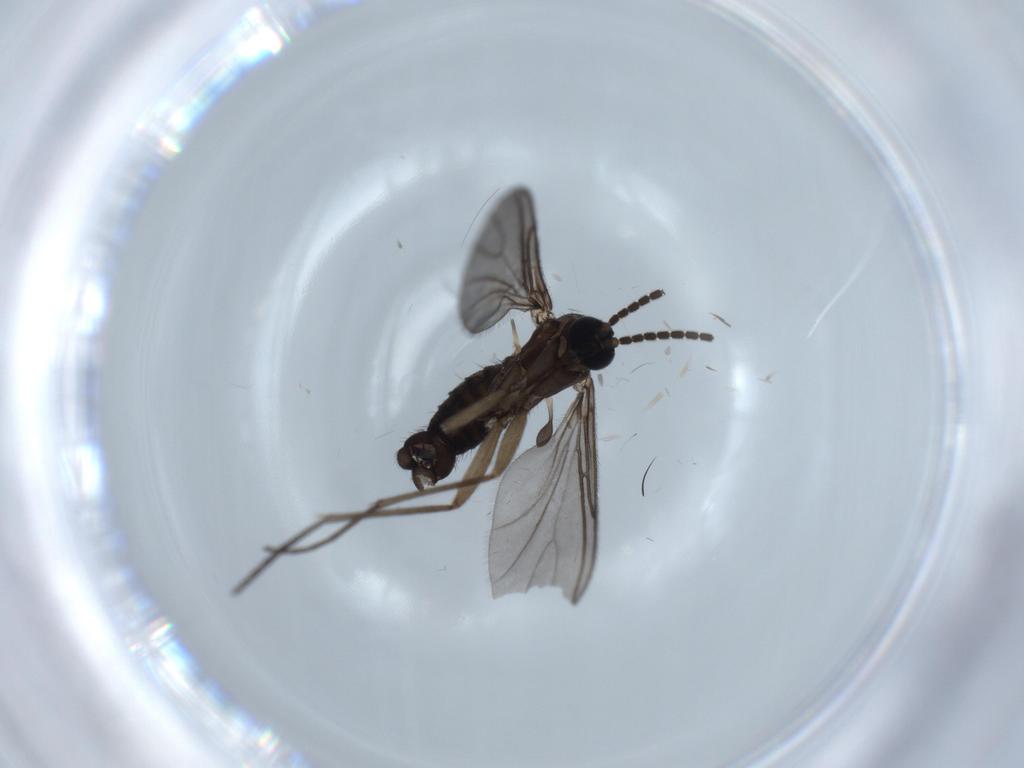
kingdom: Animalia
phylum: Arthropoda
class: Insecta
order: Diptera
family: Sciaridae
